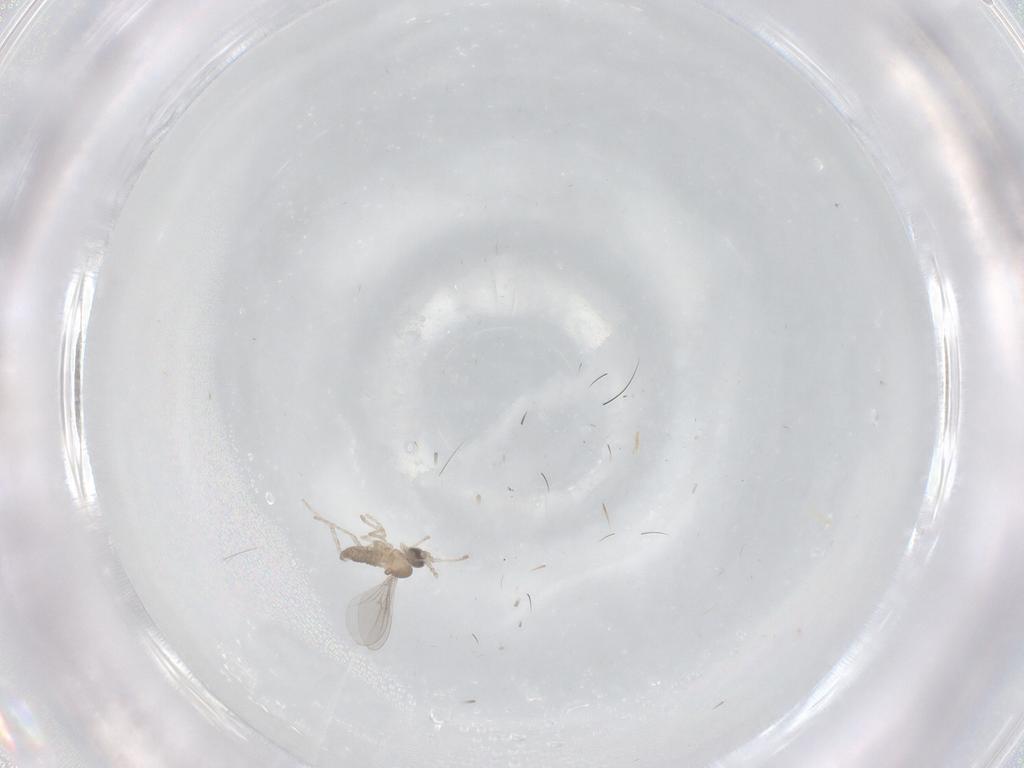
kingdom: Animalia
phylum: Arthropoda
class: Insecta
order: Diptera
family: Cecidomyiidae
